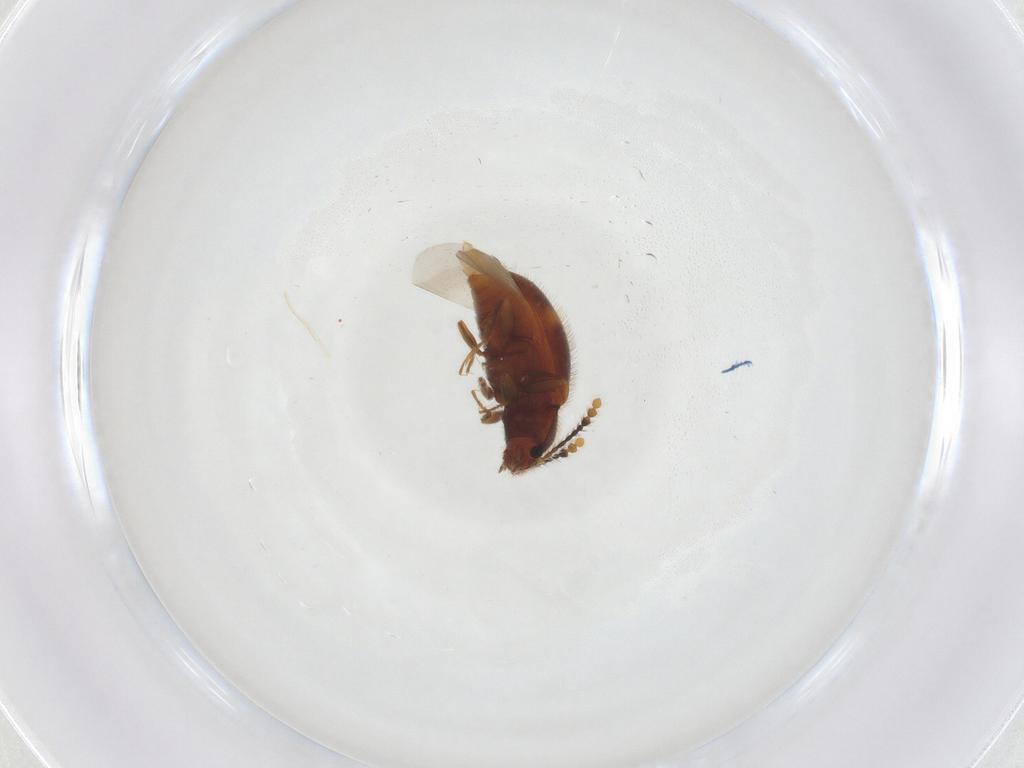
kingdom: Animalia
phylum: Arthropoda
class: Insecta
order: Coleoptera
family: Erotylidae
